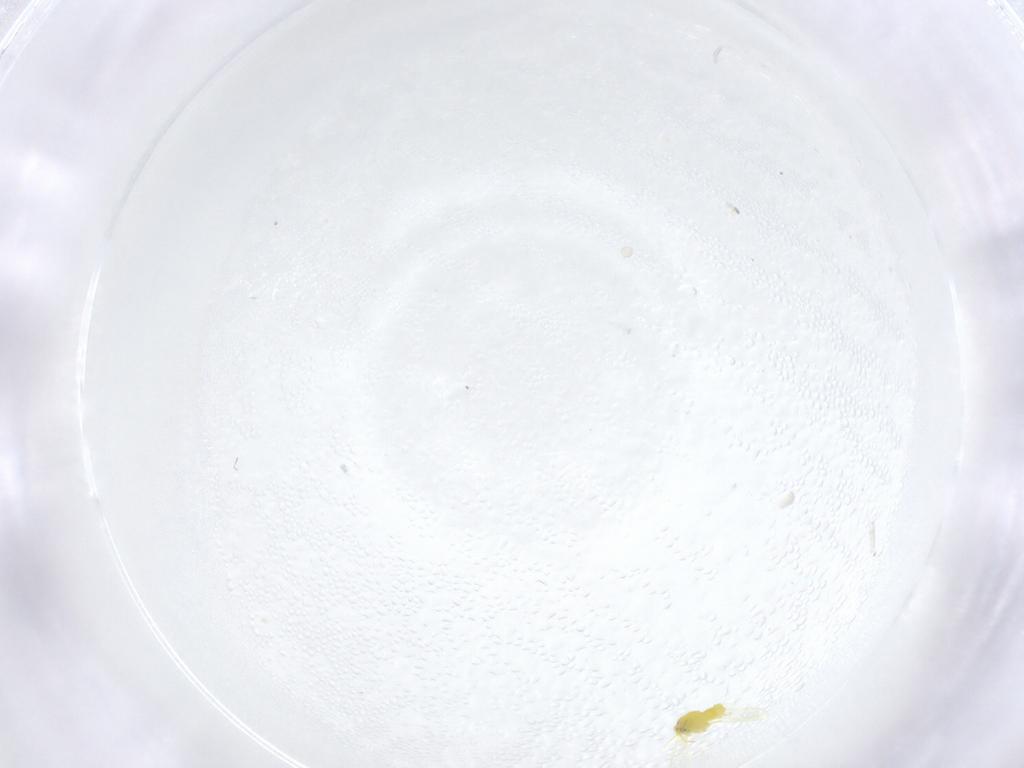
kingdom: Animalia
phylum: Arthropoda
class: Insecta
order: Hemiptera
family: Aleyrodidae
